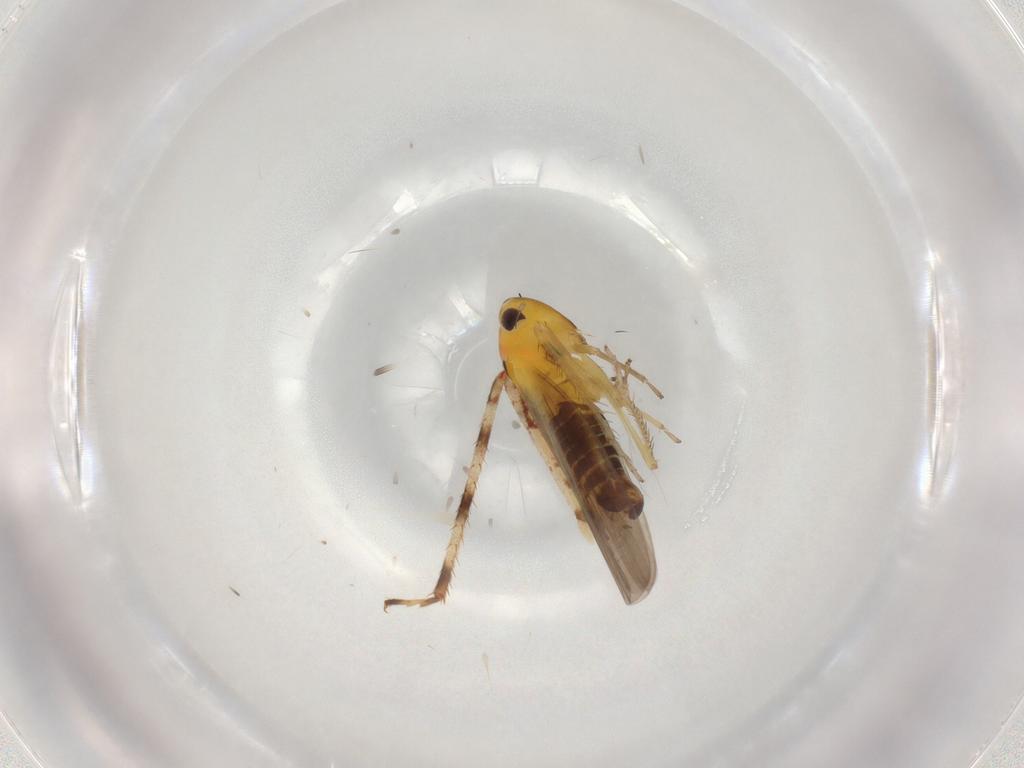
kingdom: Animalia
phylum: Arthropoda
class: Insecta
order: Hemiptera
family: Cicadellidae
